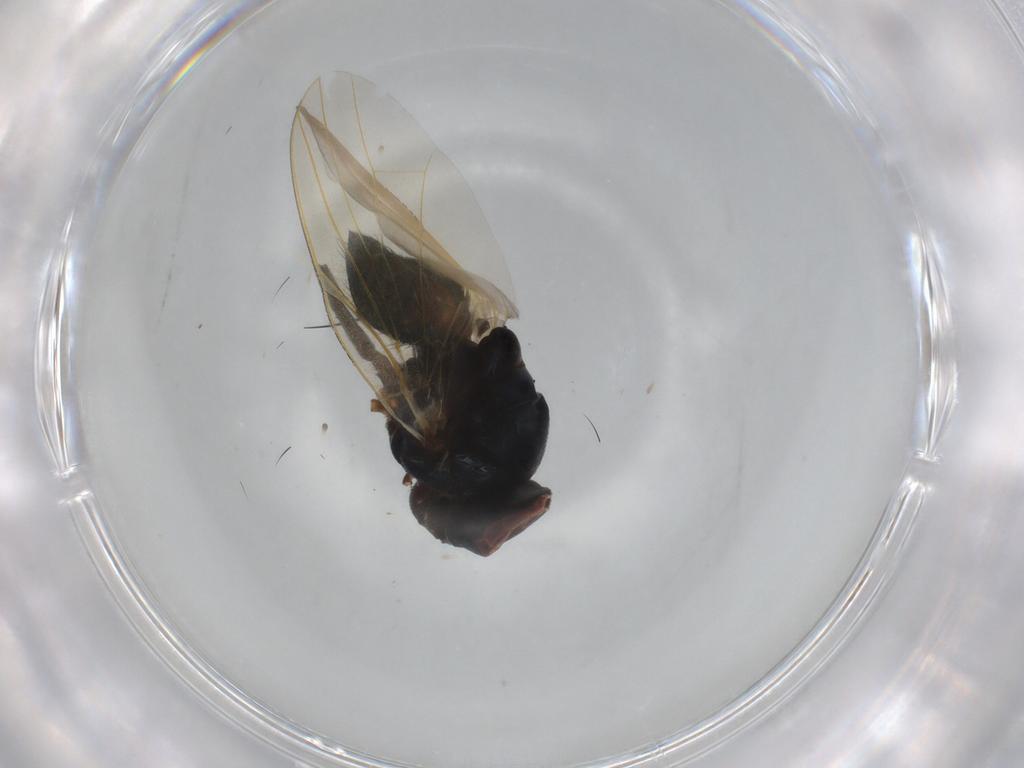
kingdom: Animalia
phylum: Arthropoda
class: Insecta
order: Diptera
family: Lonchaeidae
